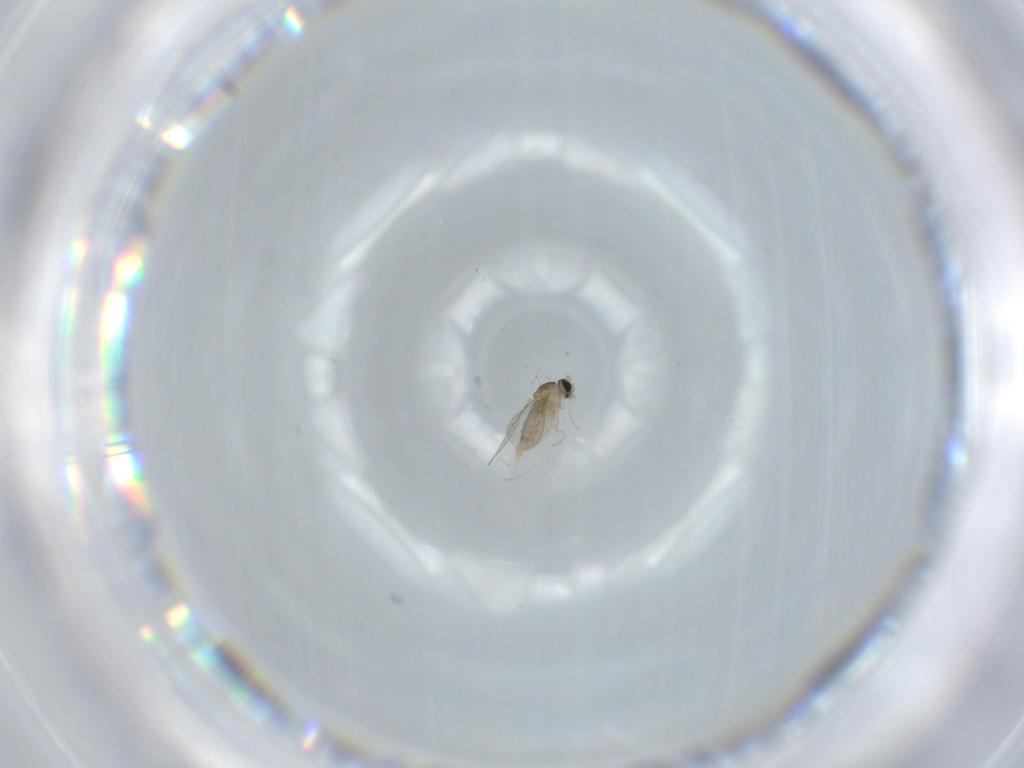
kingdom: Animalia
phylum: Arthropoda
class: Insecta
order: Diptera
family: Cecidomyiidae
